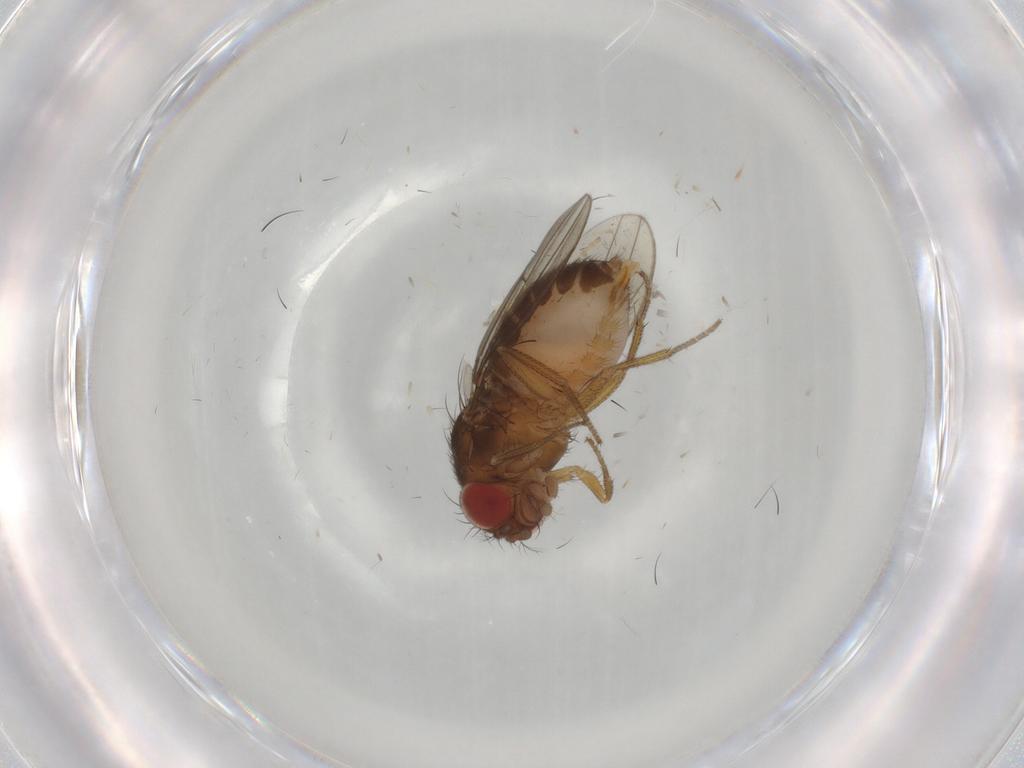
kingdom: Animalia
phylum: Arthropoda
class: Insecta
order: Diptera
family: Drosophilidae
